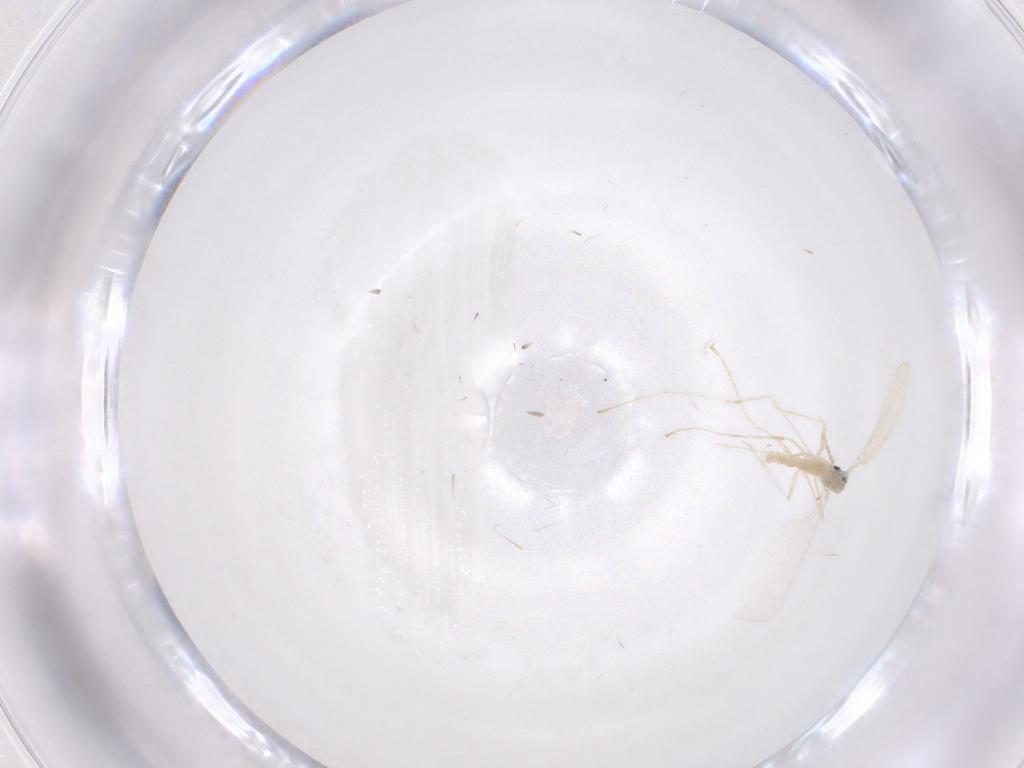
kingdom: Animalia
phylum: Arthropoda
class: Insecta
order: Diptera
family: Cecidomyiidae
